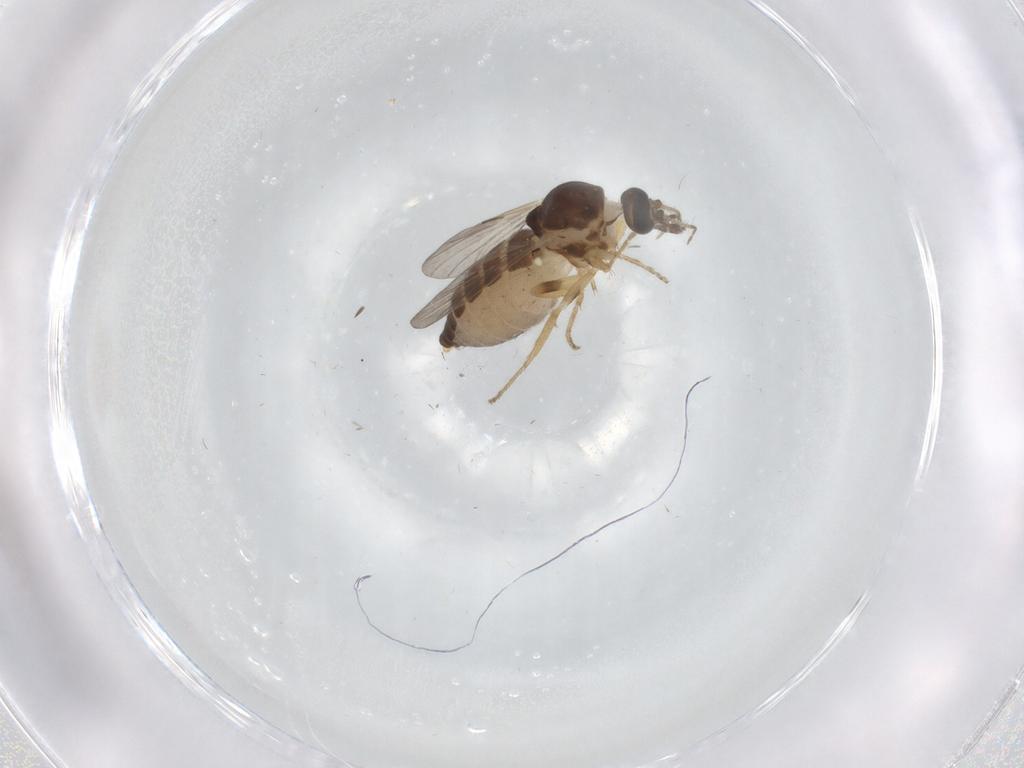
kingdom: Animalia
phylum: Arthropoda
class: Insecta
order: Diptera
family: Ceratopogonidae
